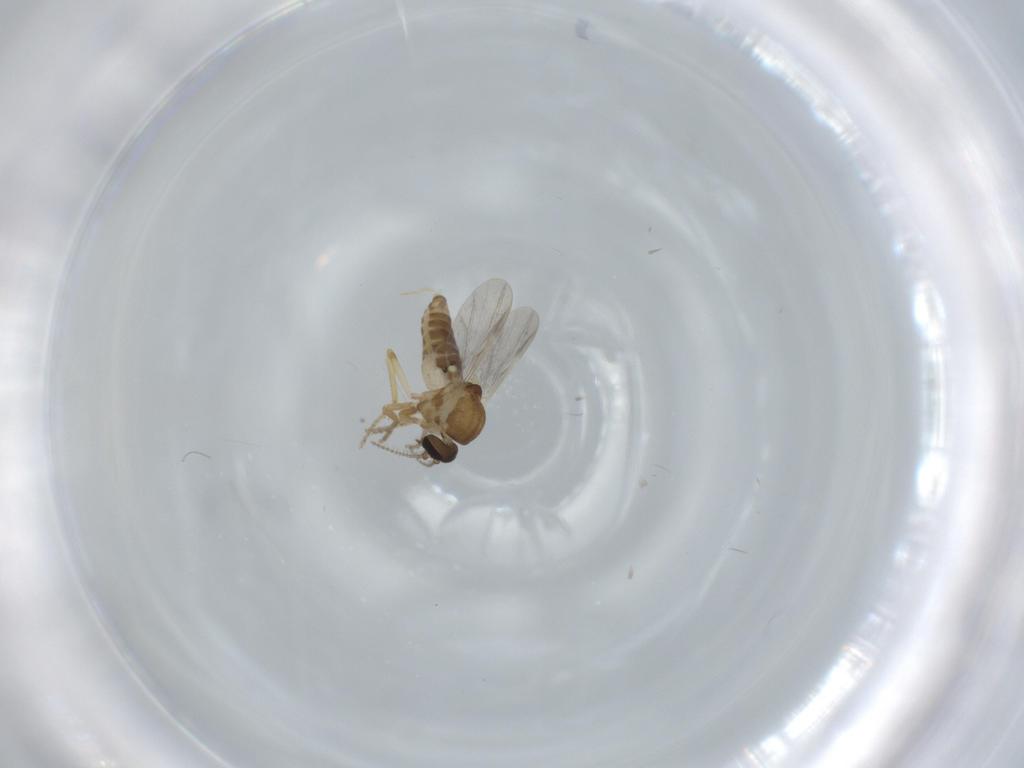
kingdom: Animalia
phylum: Arthropoda
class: Insecta
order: Diptera
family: Ceratopogonidae
